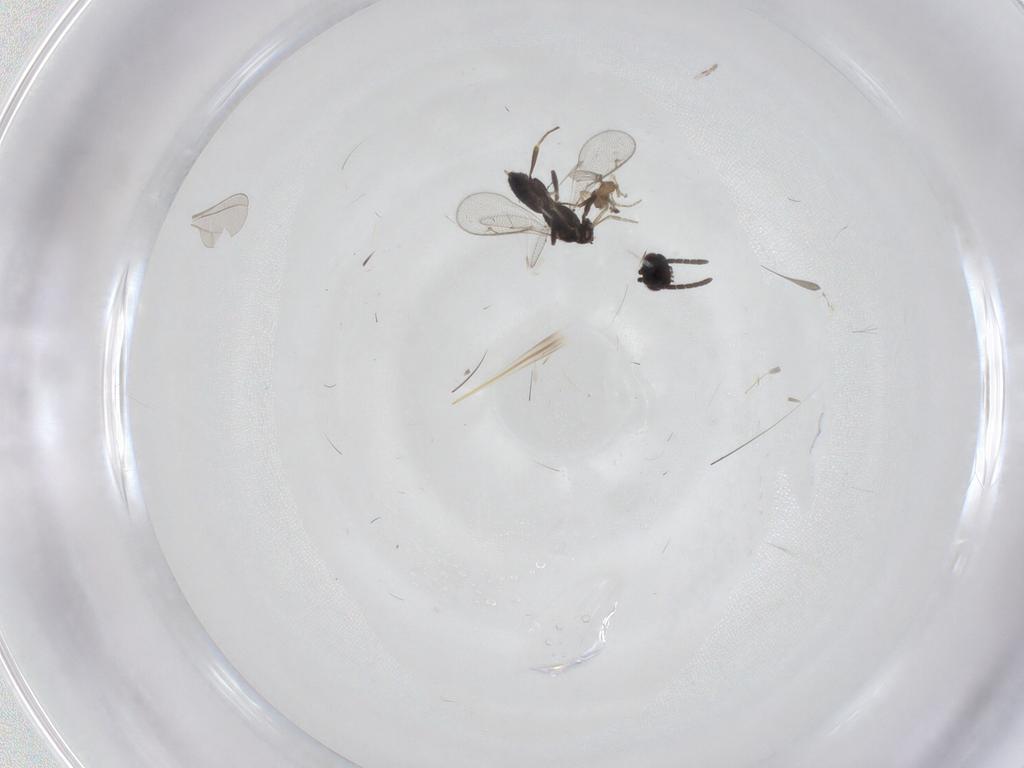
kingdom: Animalia
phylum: Arthropoda
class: Insecta
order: Diptera
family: Phoridae
